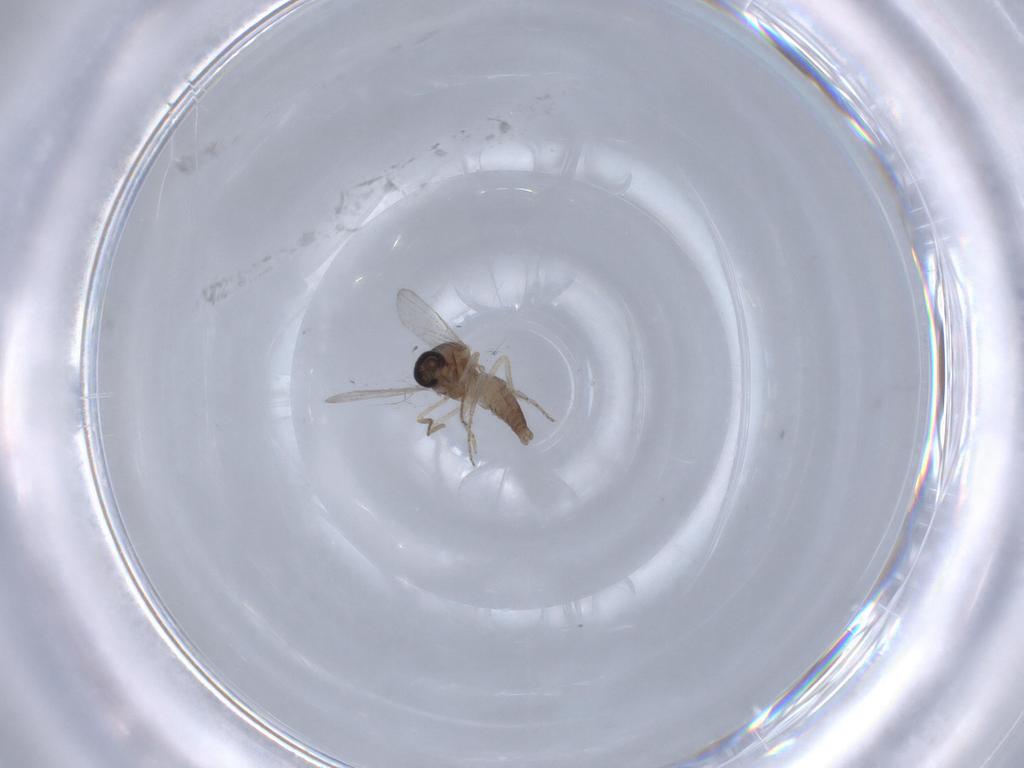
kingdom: Animalia
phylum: Arthropoda
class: Insecta
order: Diptera
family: Ceratopogonidae
